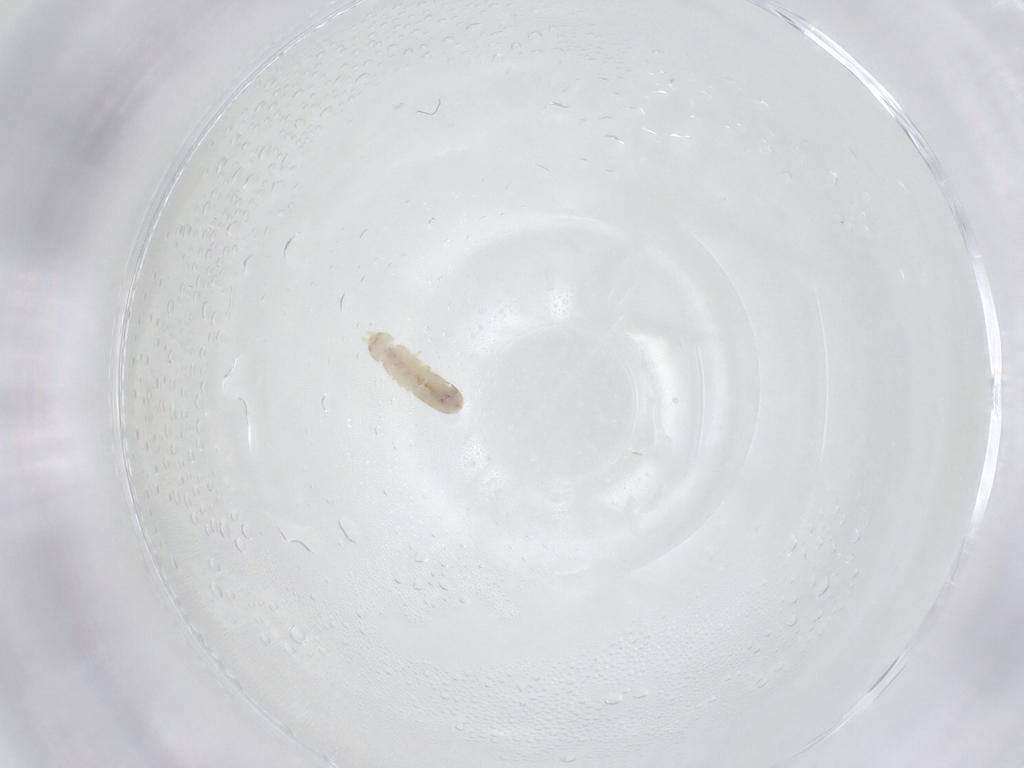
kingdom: Animalia
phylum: Arthropoda
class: Collembola
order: Entomobryomorpha
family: Isotomidae
